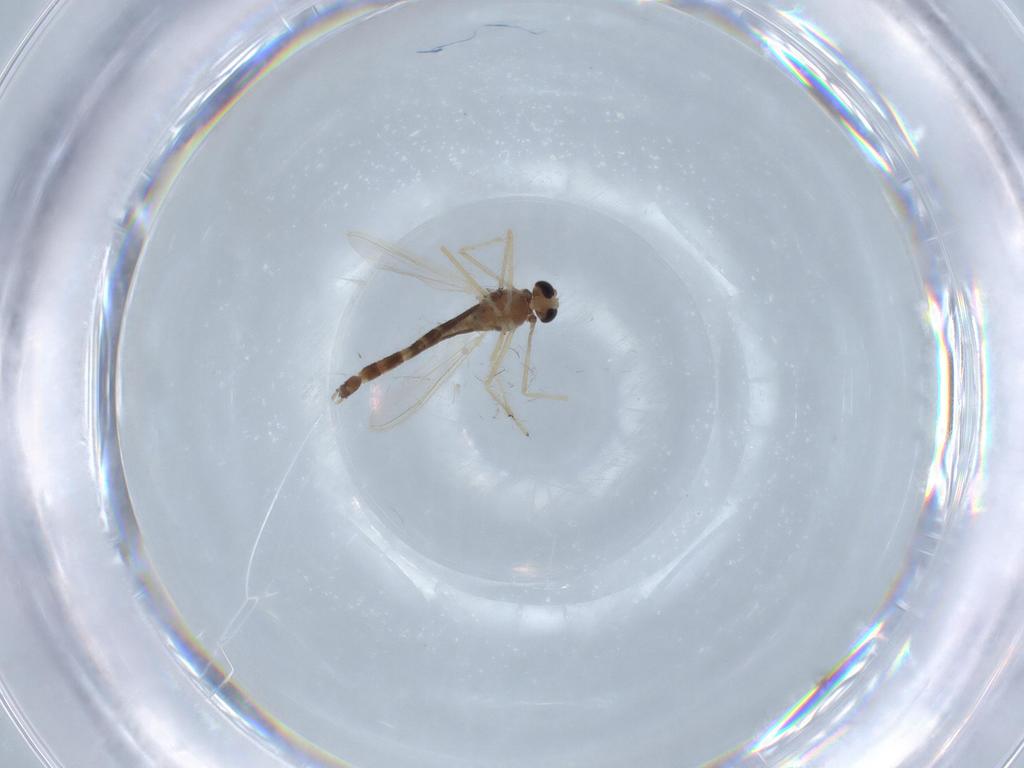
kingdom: Animalia
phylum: Arthropoda
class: Insecta
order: Diptera
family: Chironomidae
